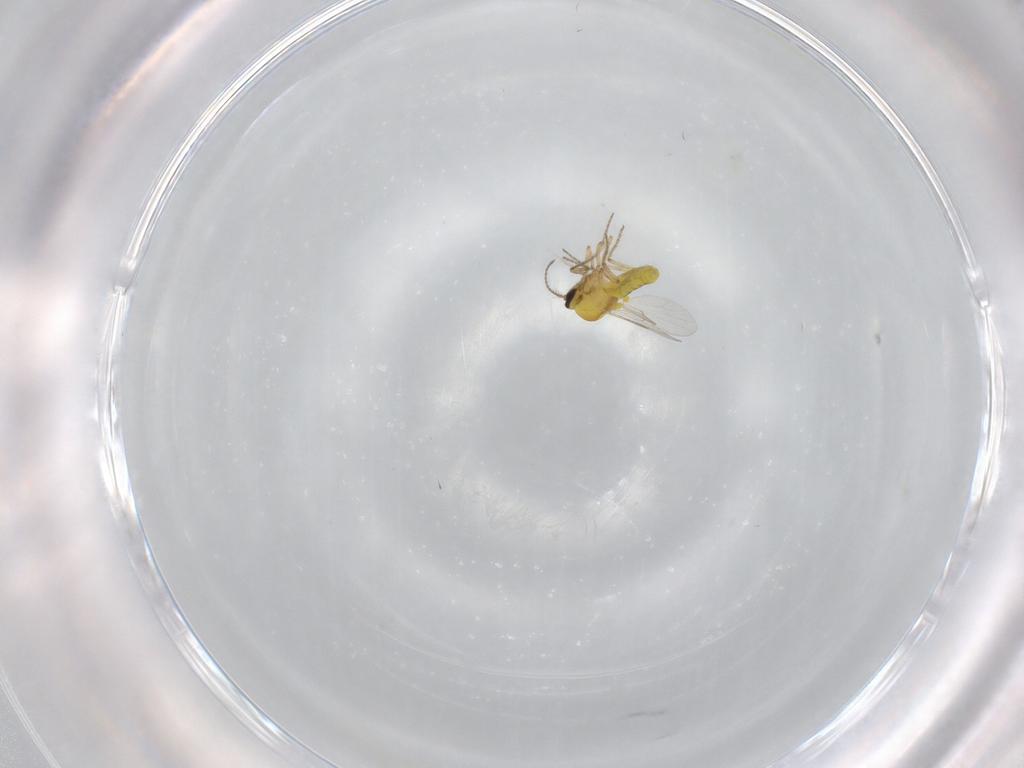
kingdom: Animalia
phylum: Arthropoda
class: Insecta
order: Diptera
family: Ceratopogonidae
